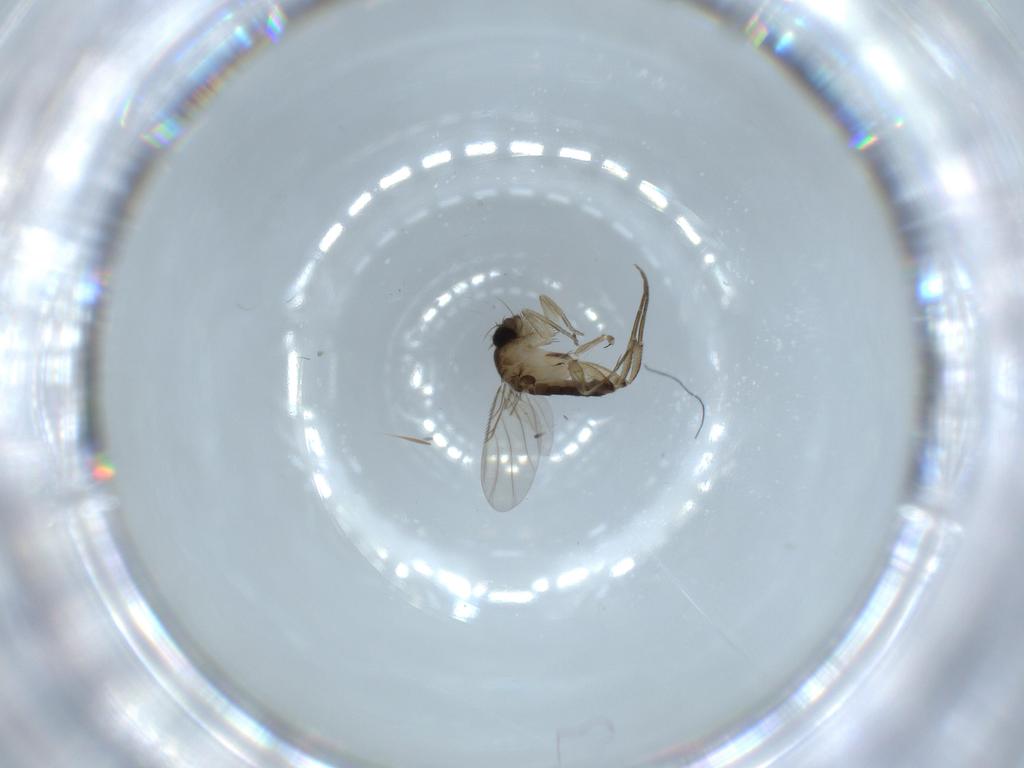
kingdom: Animalia
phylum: Arthropoda
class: Insecta
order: Diptera
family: Phoridae
